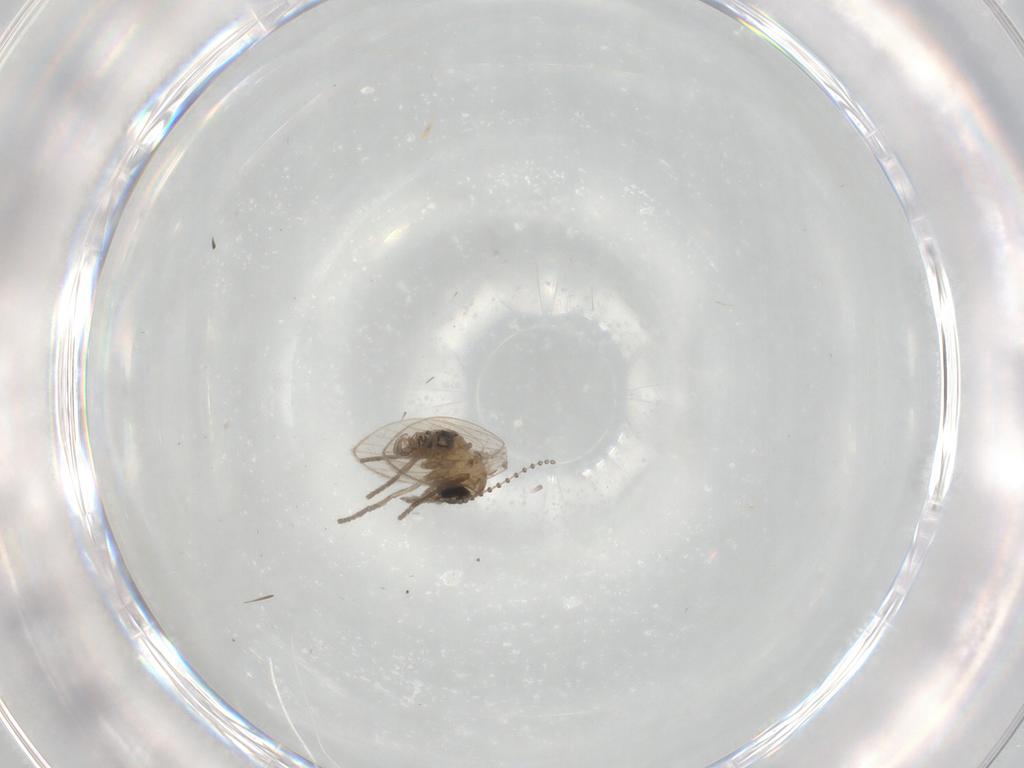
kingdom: Animalia
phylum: Arthropoda
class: Insecta
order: Diptera
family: Psychodidae
